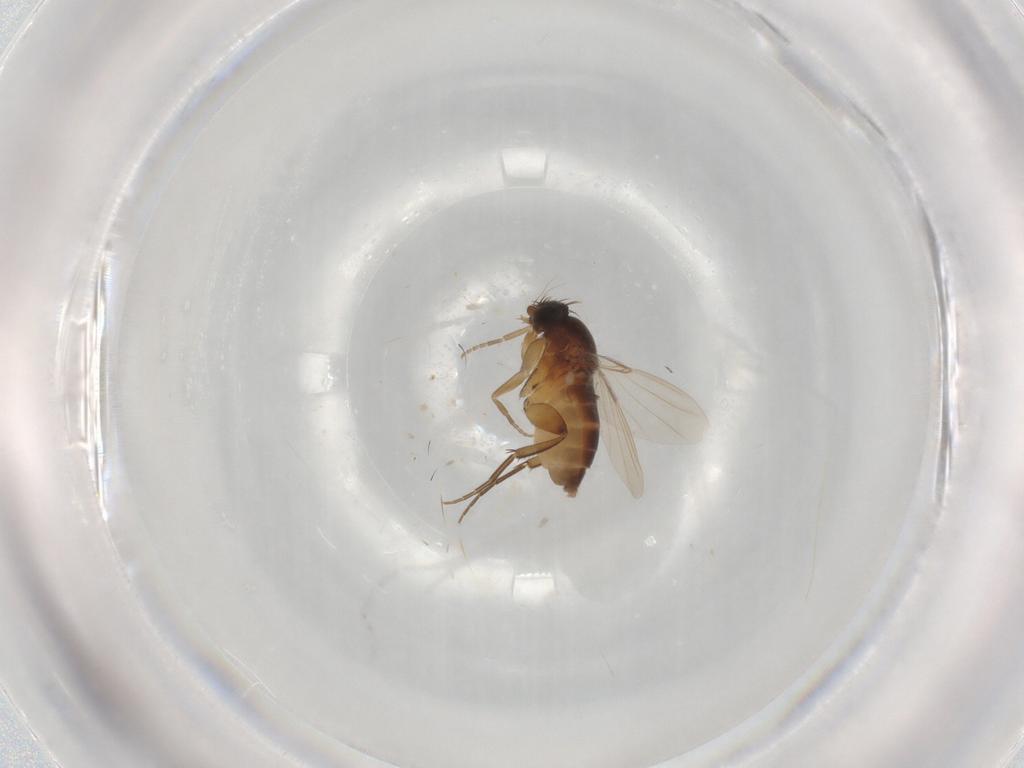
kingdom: Animalia
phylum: Arthropoda
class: Insecta
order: Diptera
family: Phoridae
